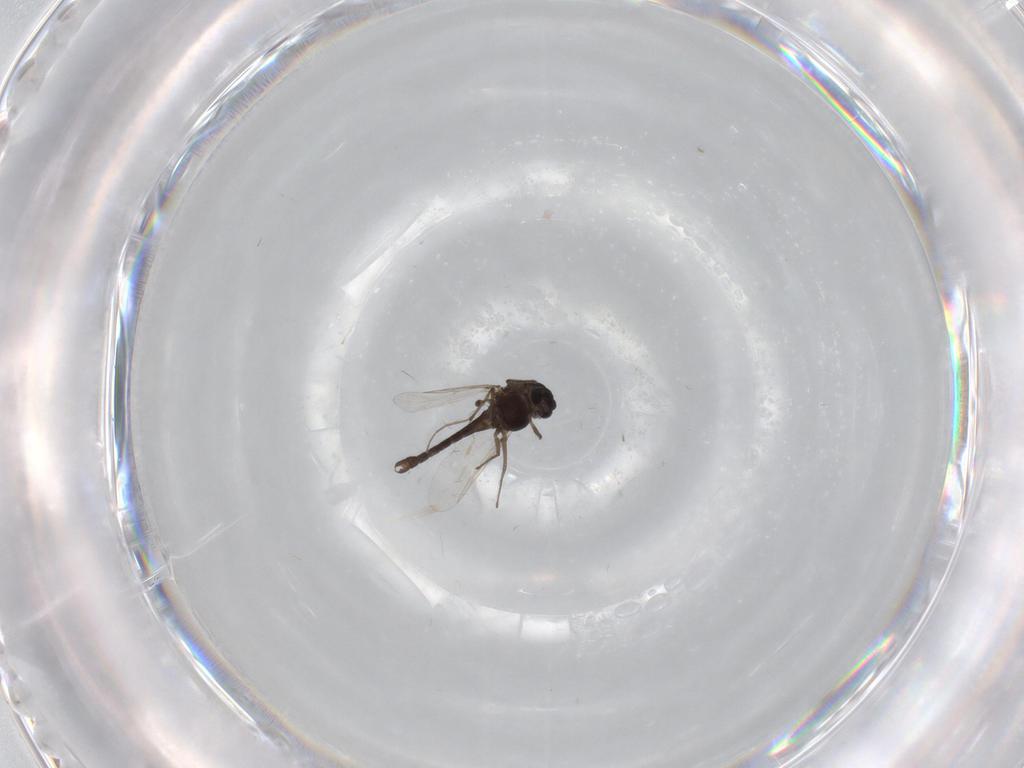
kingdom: Animalia
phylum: Arthropoda
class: Insecta
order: Diptera
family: Chironomidae
